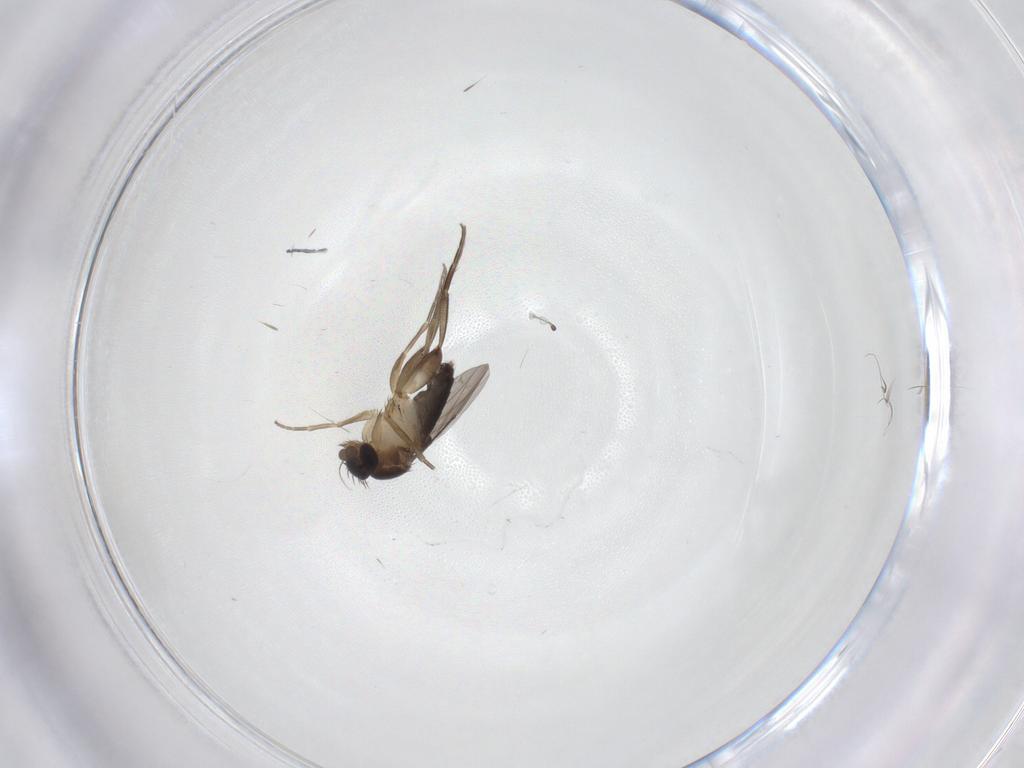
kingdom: Animalia
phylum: Arthropoda
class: Insecta
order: Diptera
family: Phoridae
